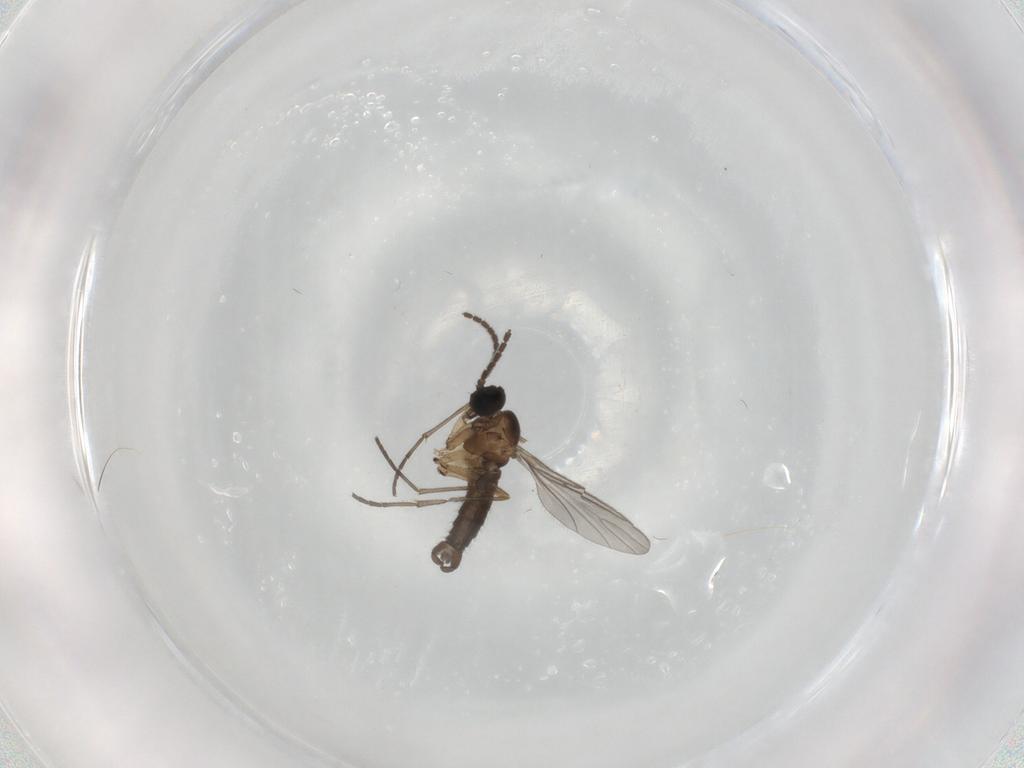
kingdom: Animalia
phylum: Arthropoda
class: Insecta
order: Diptera
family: Sciaridae
